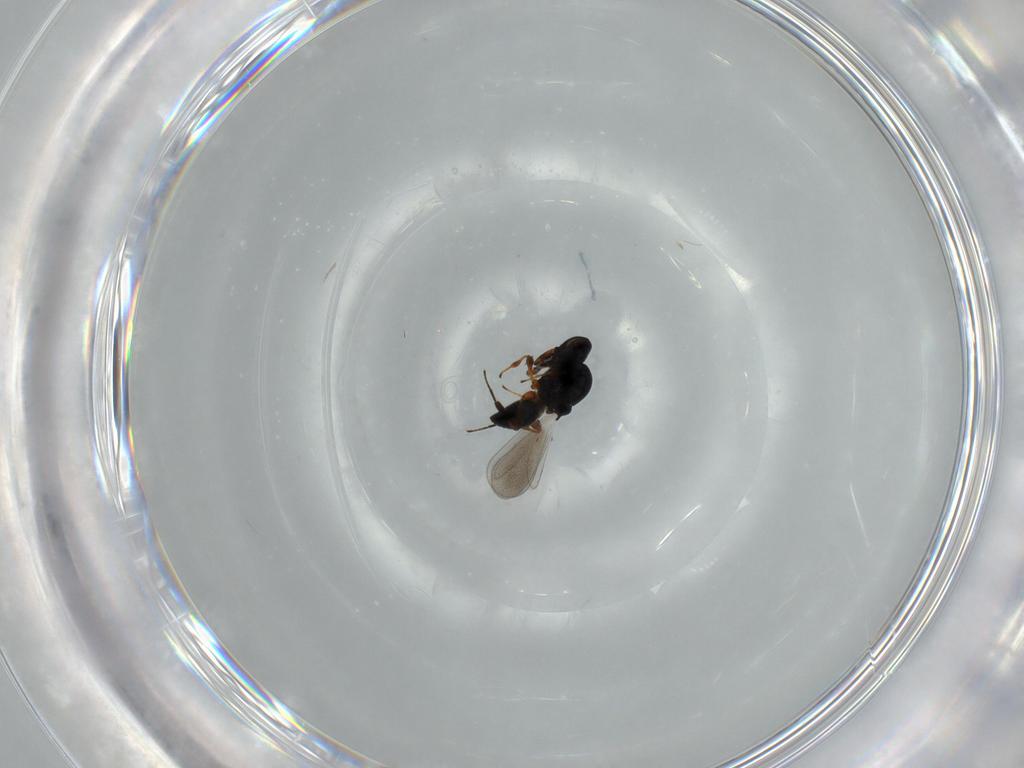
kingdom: Animalia
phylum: Arthropoda
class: Insecta
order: Hymenoptera
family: Platygastridae
